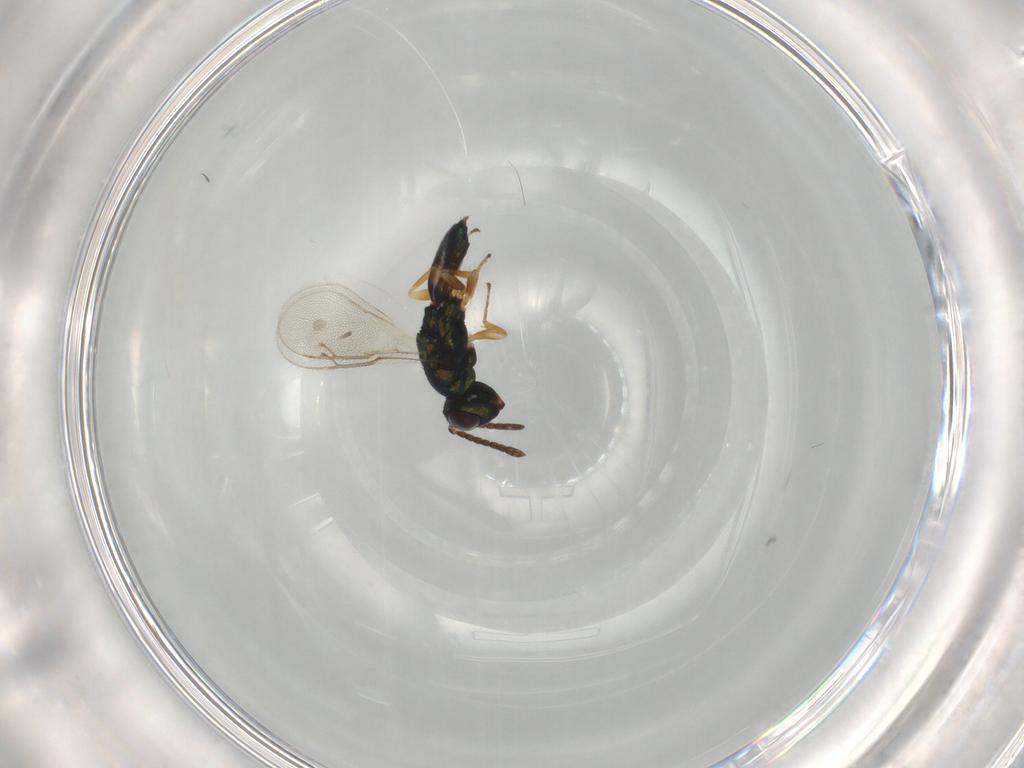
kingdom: Animalia
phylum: Arthropoda
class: Insecta
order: Hymenoptera
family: Pteromalidae
